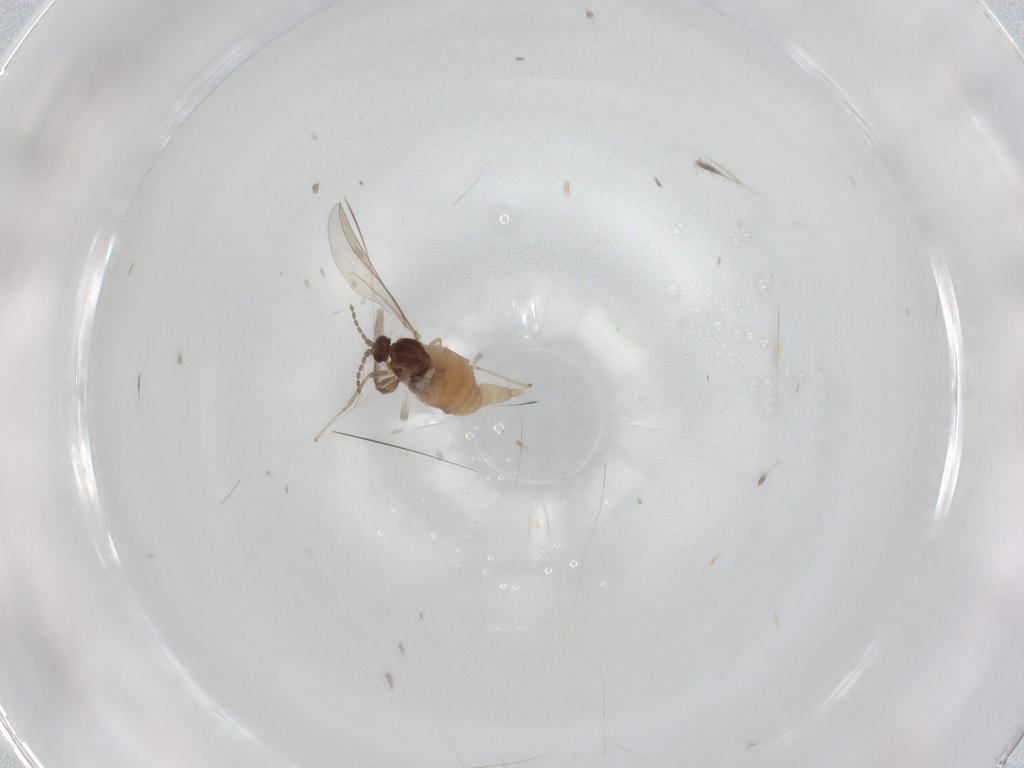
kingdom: Animalia
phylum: Arthropoda
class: Insecta
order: Diptera
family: Cecidomyiidae
